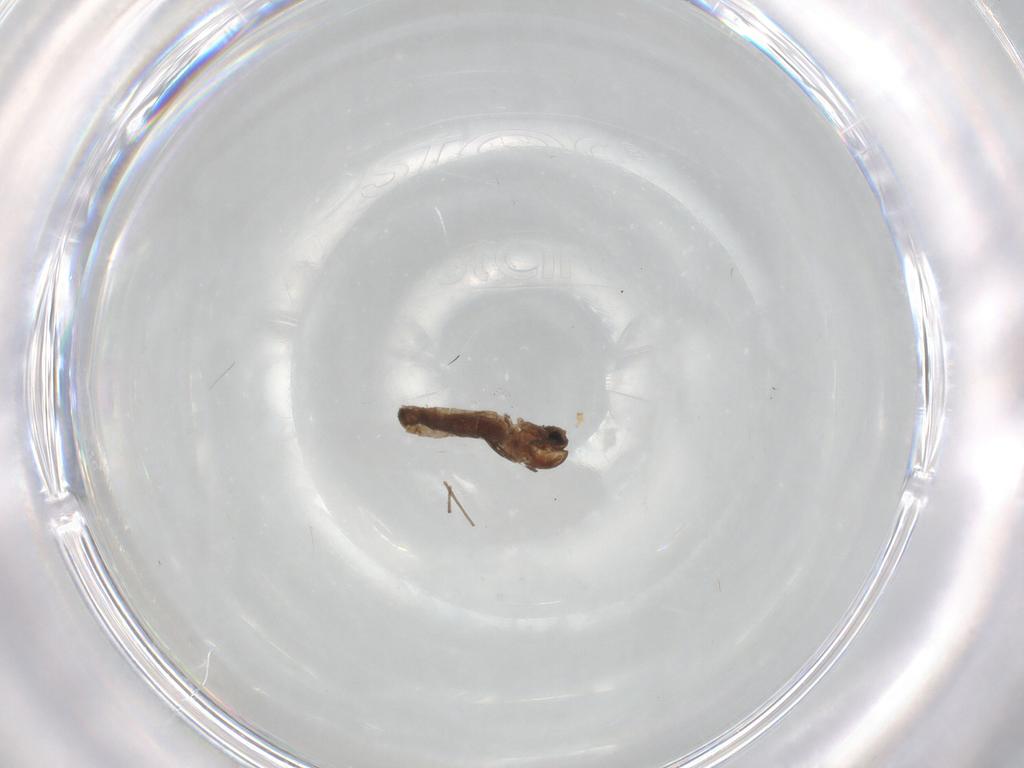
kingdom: Animalia
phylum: Arthropoda
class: Insecta
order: Diptera
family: Cecidomyiidae
